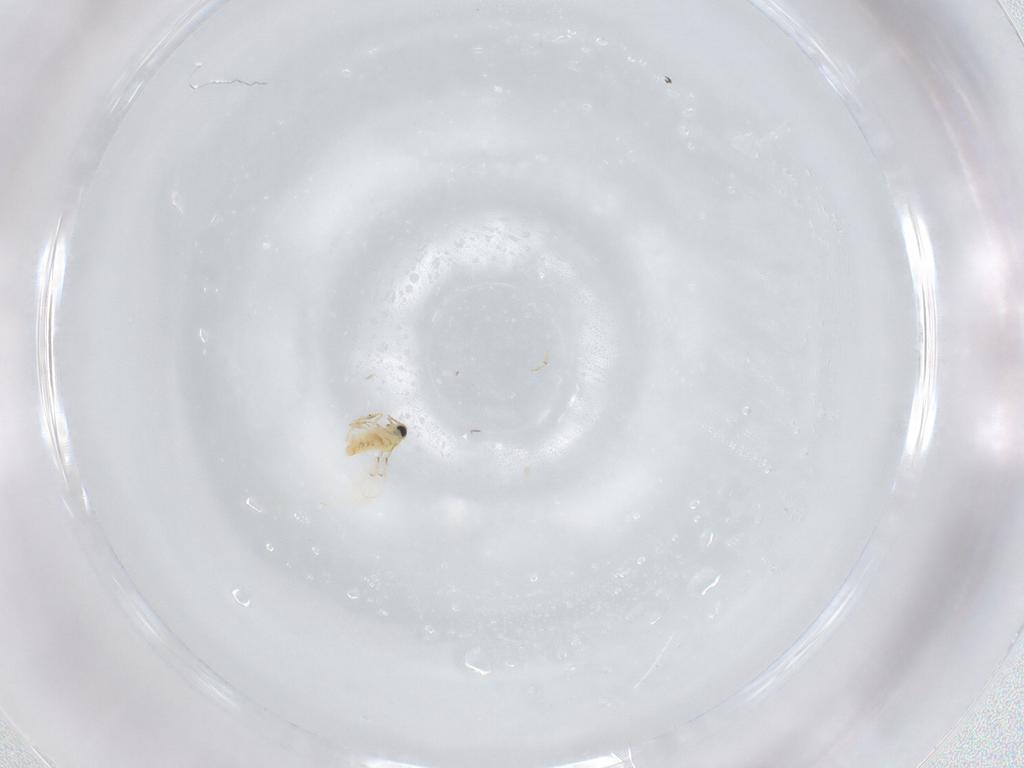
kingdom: Animalia
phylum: Arthropoda
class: Insecta
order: Hymenoptera
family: Trichogrammatidae
